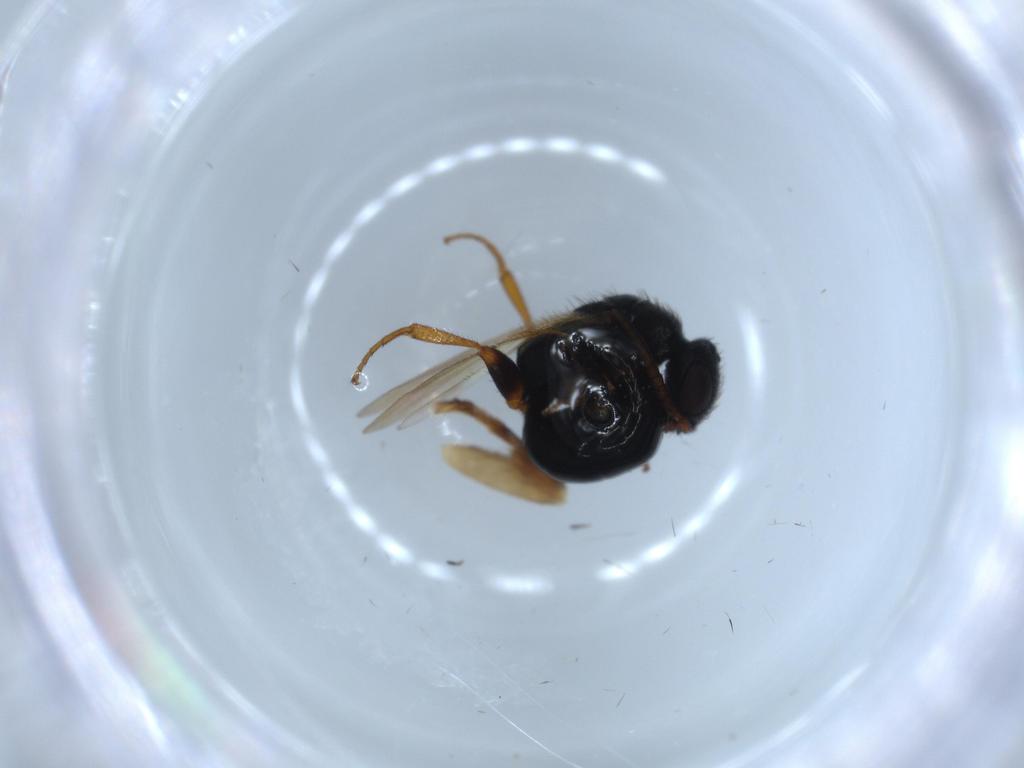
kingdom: Animalia
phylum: Arthropoda
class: Insecta
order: Hymenoptera
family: Bethylidae
